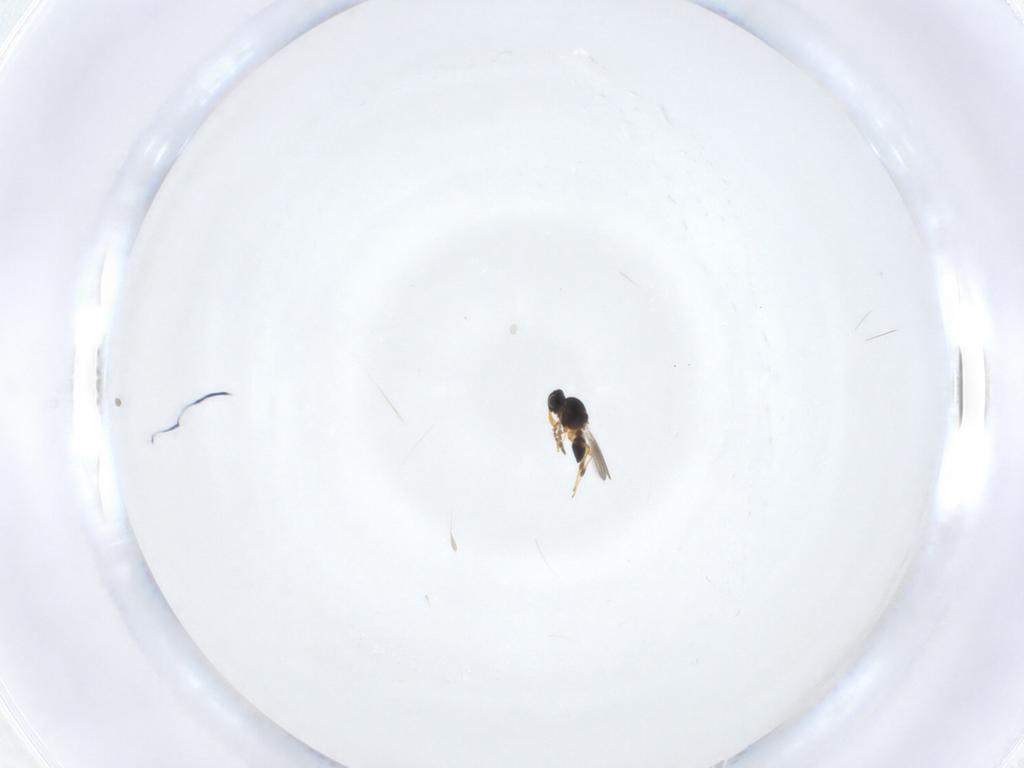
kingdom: Animalia
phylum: Arthropoda
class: Insecta
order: Hymenoptera
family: Platygastridae
